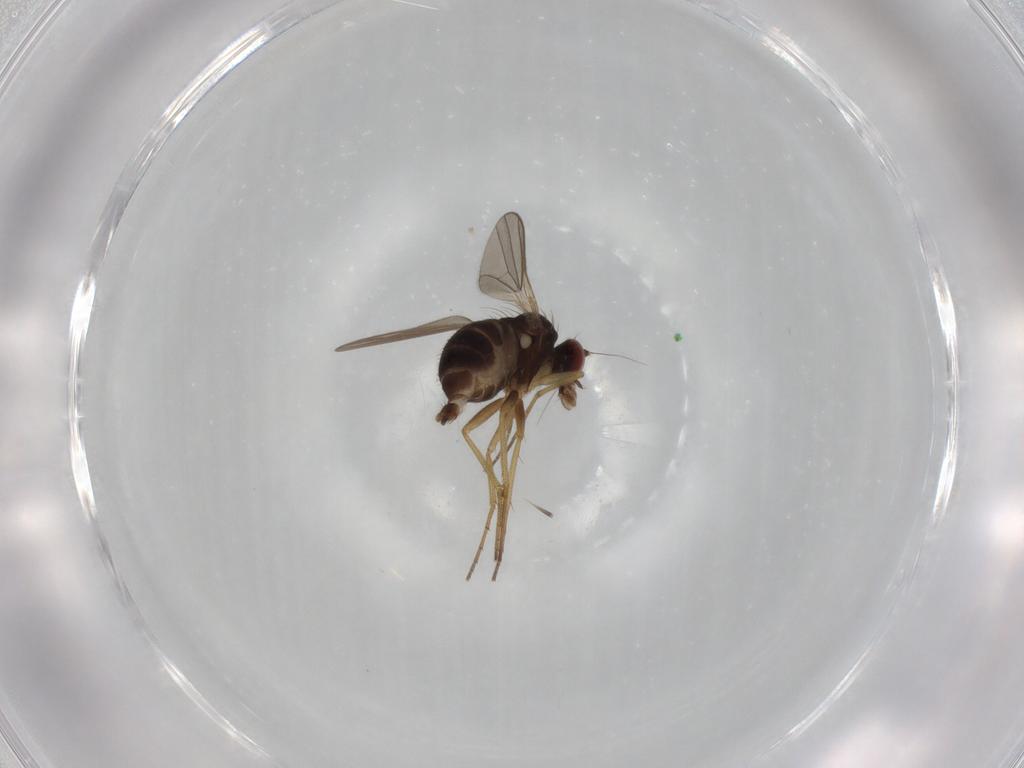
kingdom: Animalia
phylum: Arthropoda
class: Insecta
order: Diptera
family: Dolichopodidae
